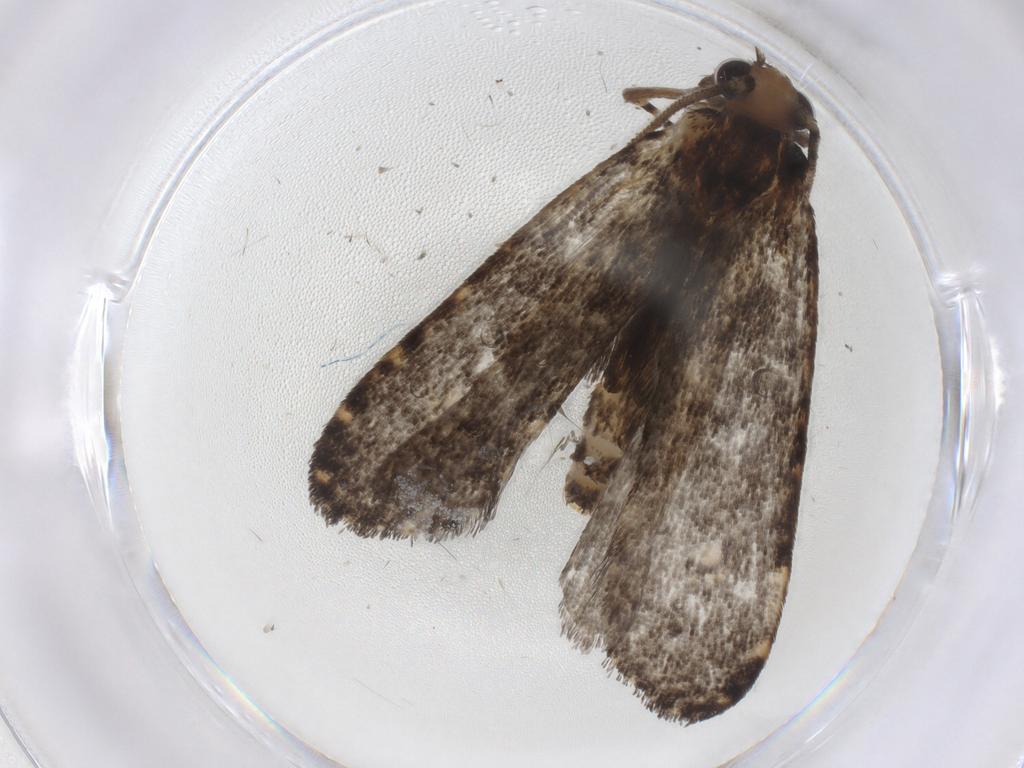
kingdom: Animalia
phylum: Arthropoda
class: Insecta
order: Lepidoptera
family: Tineidae
